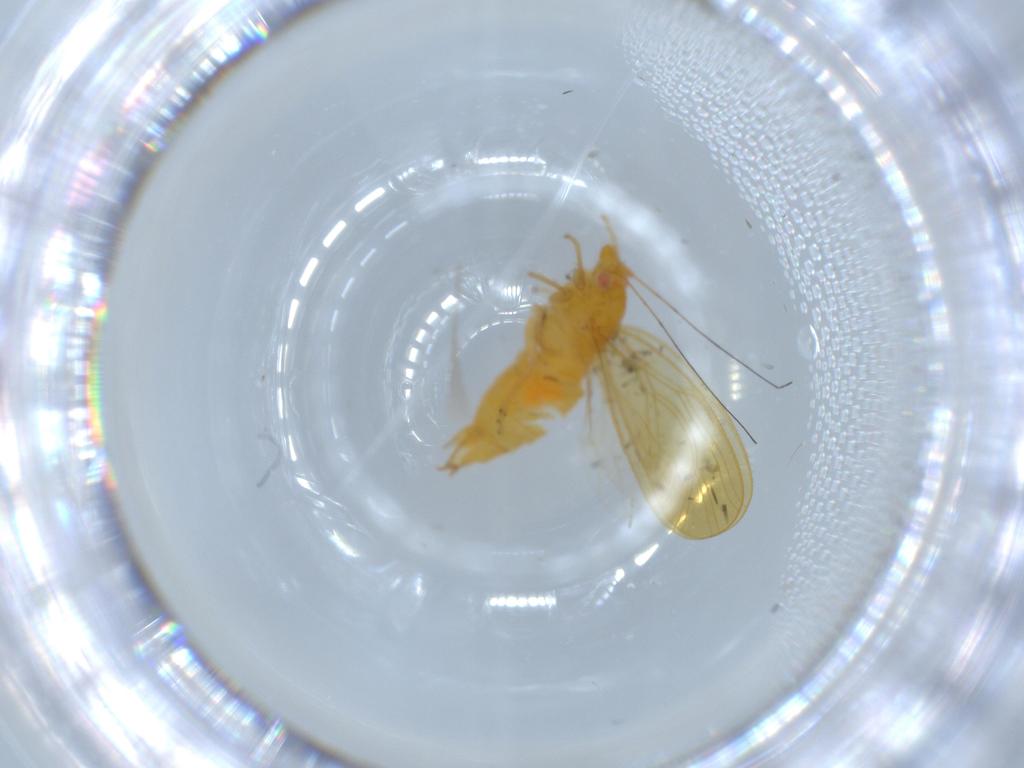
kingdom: Animalia
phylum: Arthropoda
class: Insecta
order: Hemiptera
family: Psyllidae
